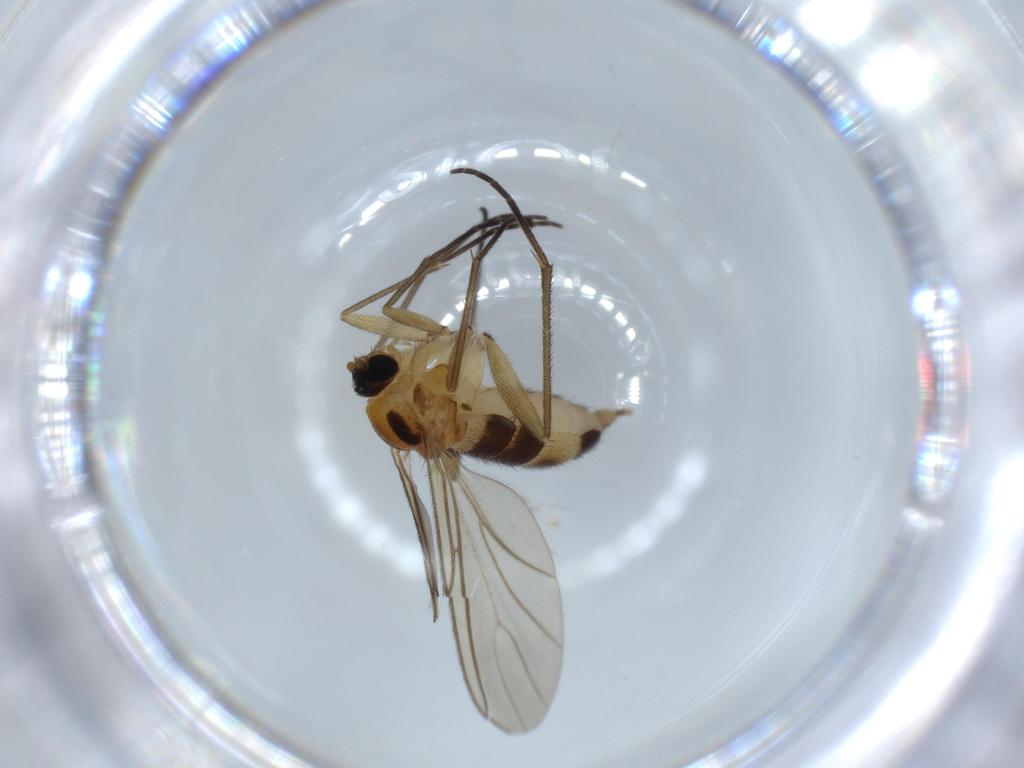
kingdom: Animalia
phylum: Arthropoda
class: Insecta
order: Diptera
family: Sciaridae
